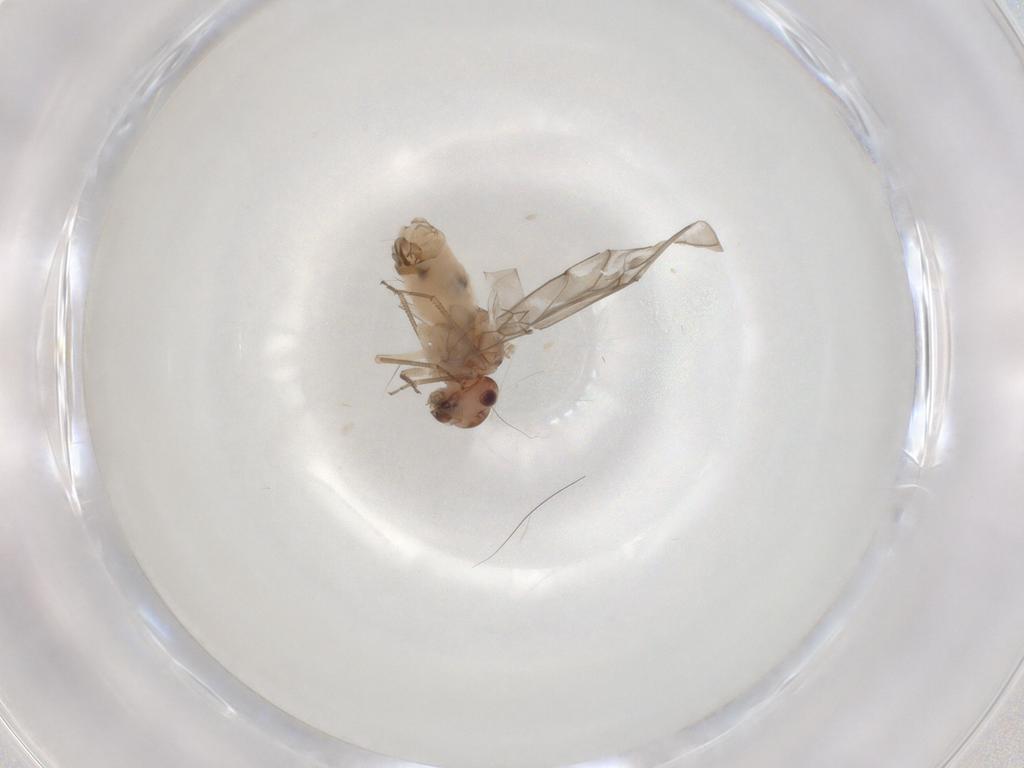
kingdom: Animalia
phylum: Arthropoda
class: Insecta
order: Psocodea
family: Peripsocidae
